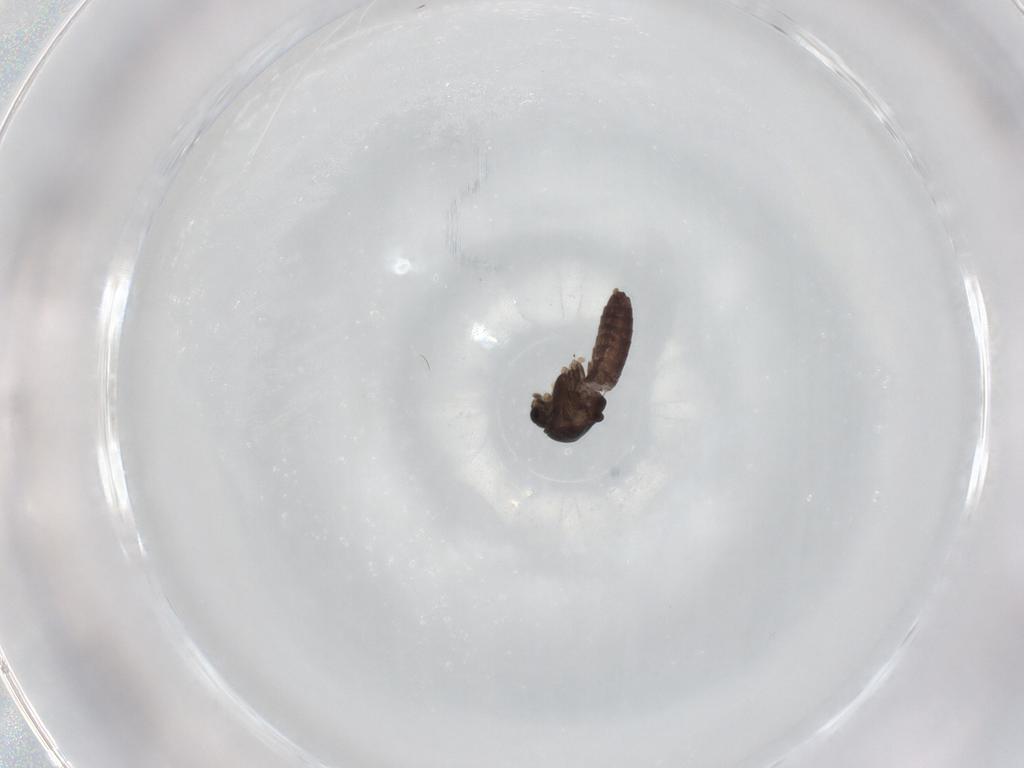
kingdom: Animalia
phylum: Arthropoda
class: Insecta
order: Diptera
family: Chironomidae
